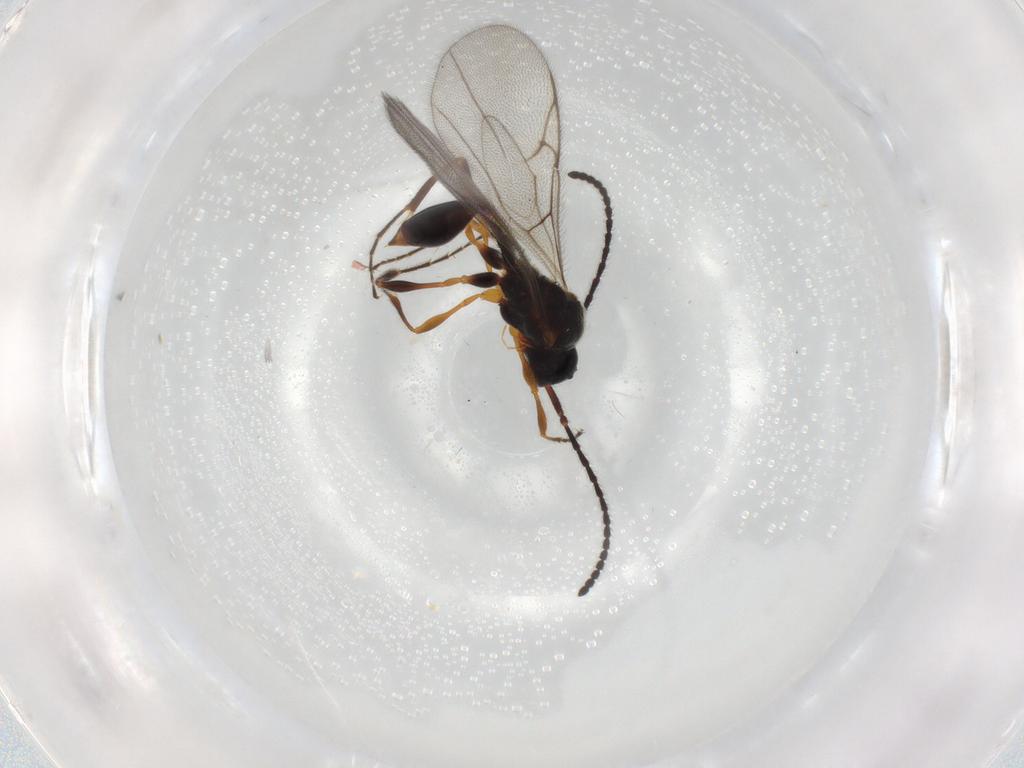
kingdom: Animalia
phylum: Arthropoda
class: Insecta
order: Hymenoptera
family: Diapriidae
